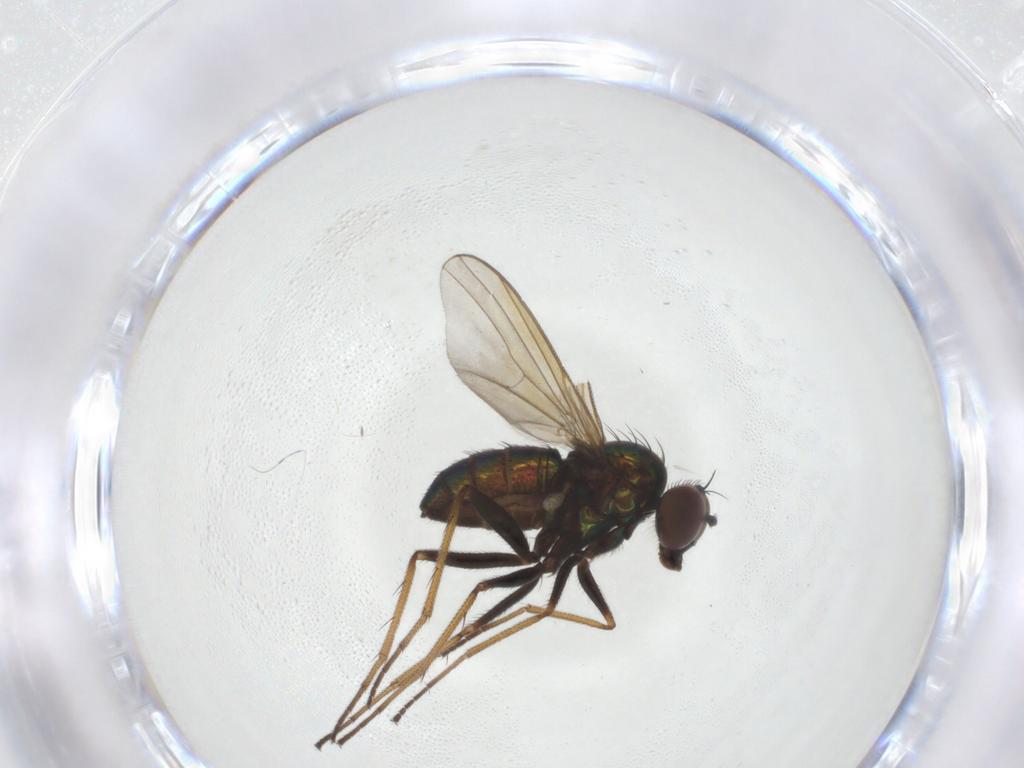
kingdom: Animalia
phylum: Arthropoda
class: Insecta
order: Diptera
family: Dolichopodidae
